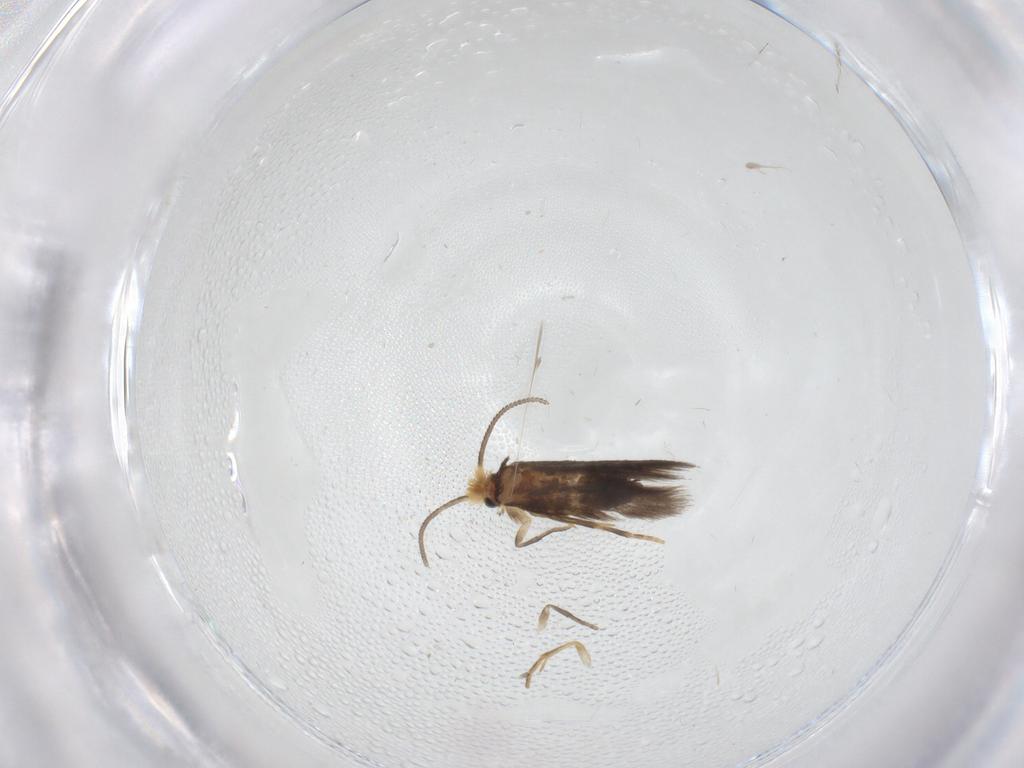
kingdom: Animalia
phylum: Arthropoda
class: Insecta
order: Lepidoptera
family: Nepticulidae
